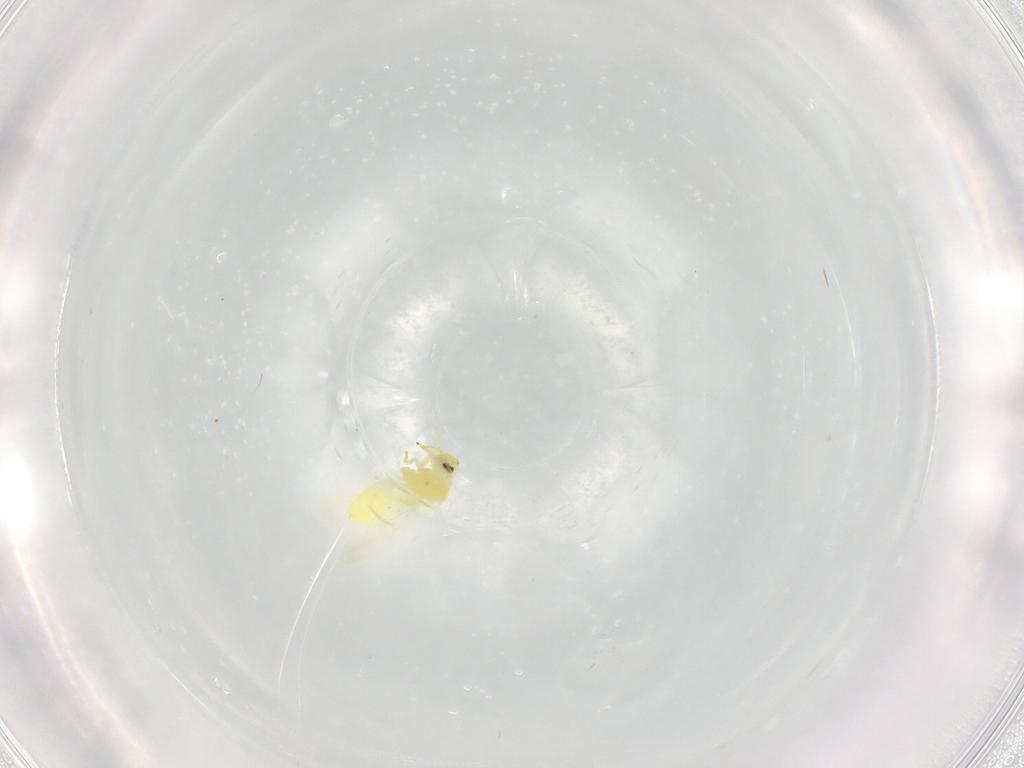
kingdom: Animalia
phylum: Arthropoda
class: Insecta
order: Hemiptera
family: Aleyrodidae
